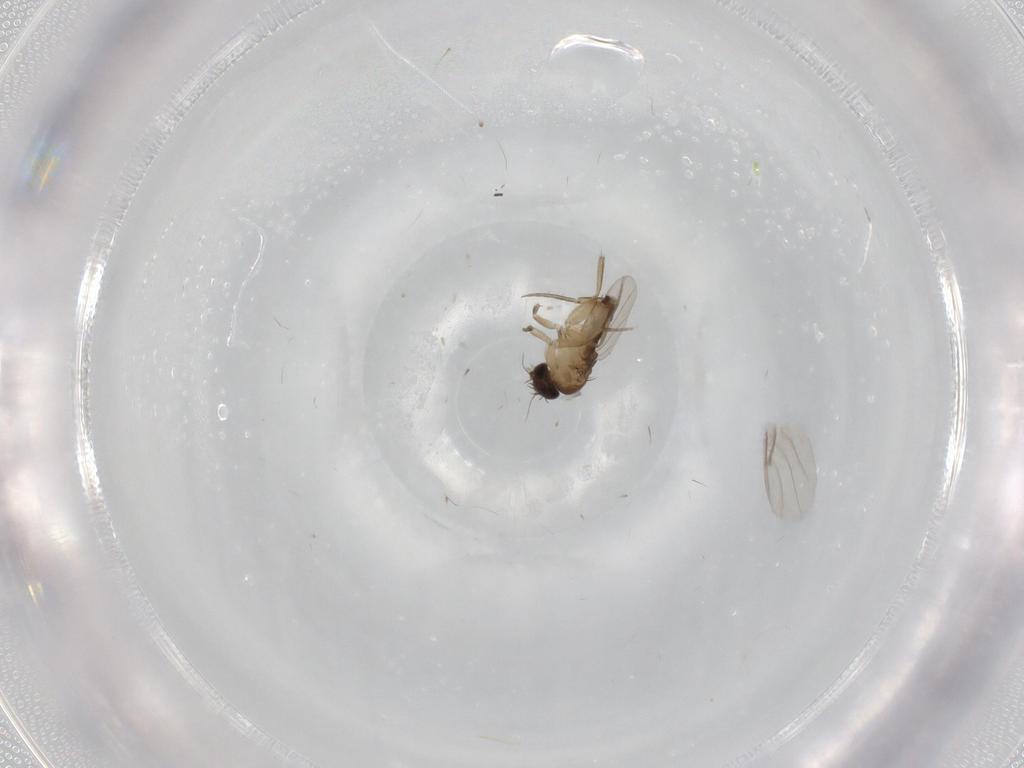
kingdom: Animalia
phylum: Arthropoda
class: Insecta
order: Diptera
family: Phoridae
